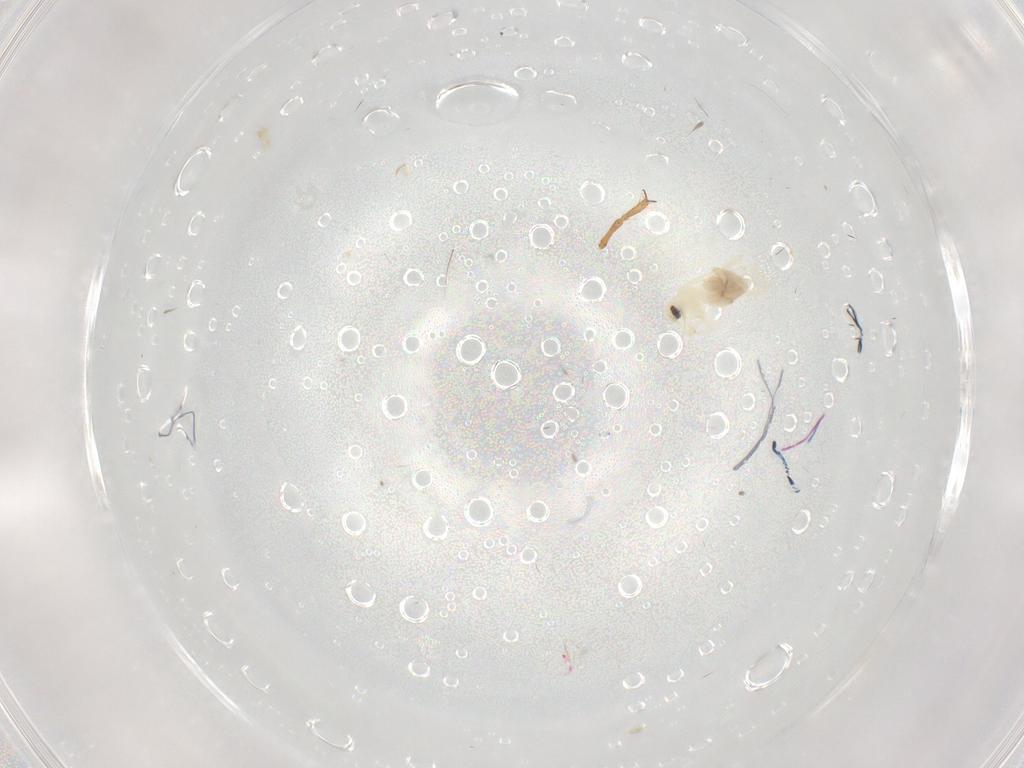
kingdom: Animalia
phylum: Arthropoda
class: Insecta
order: Hemiptera
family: Aleyrodidae
